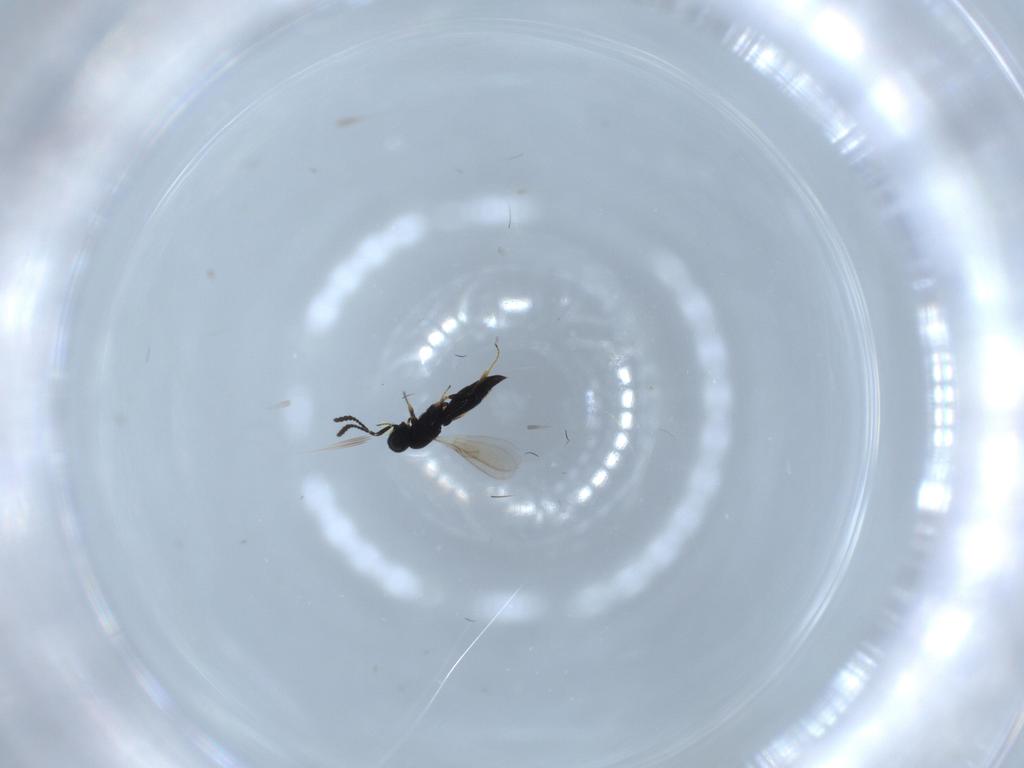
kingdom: Animalia
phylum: Arthropoda
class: Insecta
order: Hymenoptera
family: Scelionidae
